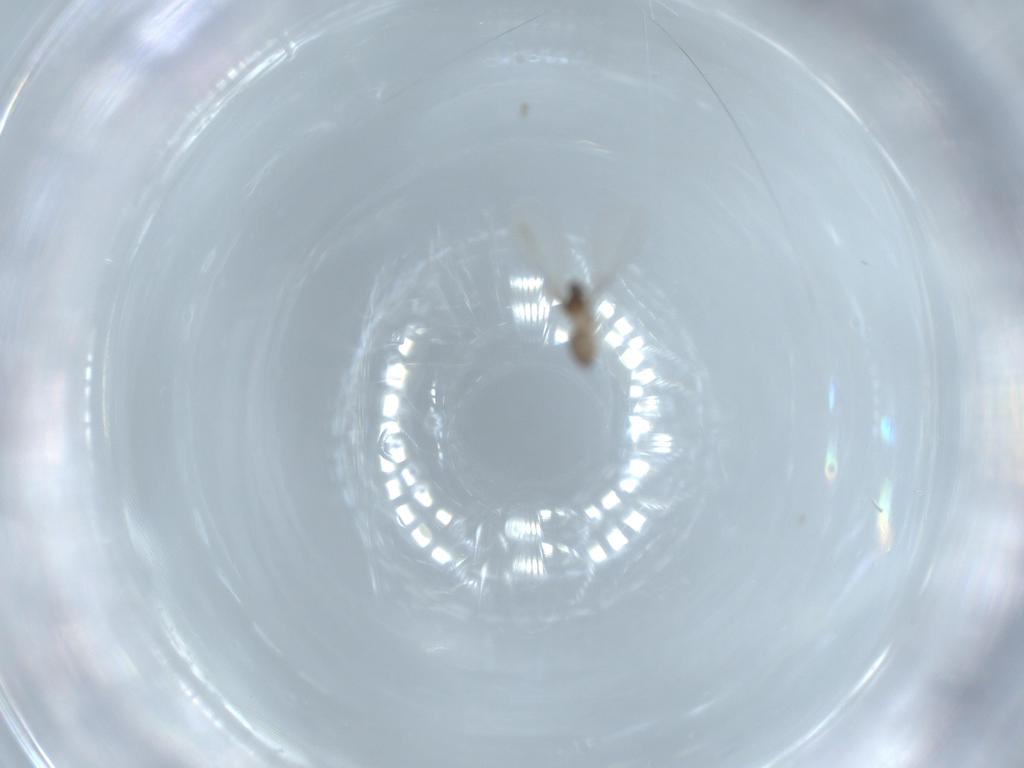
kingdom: Animalia
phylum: Arthropoda
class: Insecta
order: Diptera
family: Cecidomyiidae
